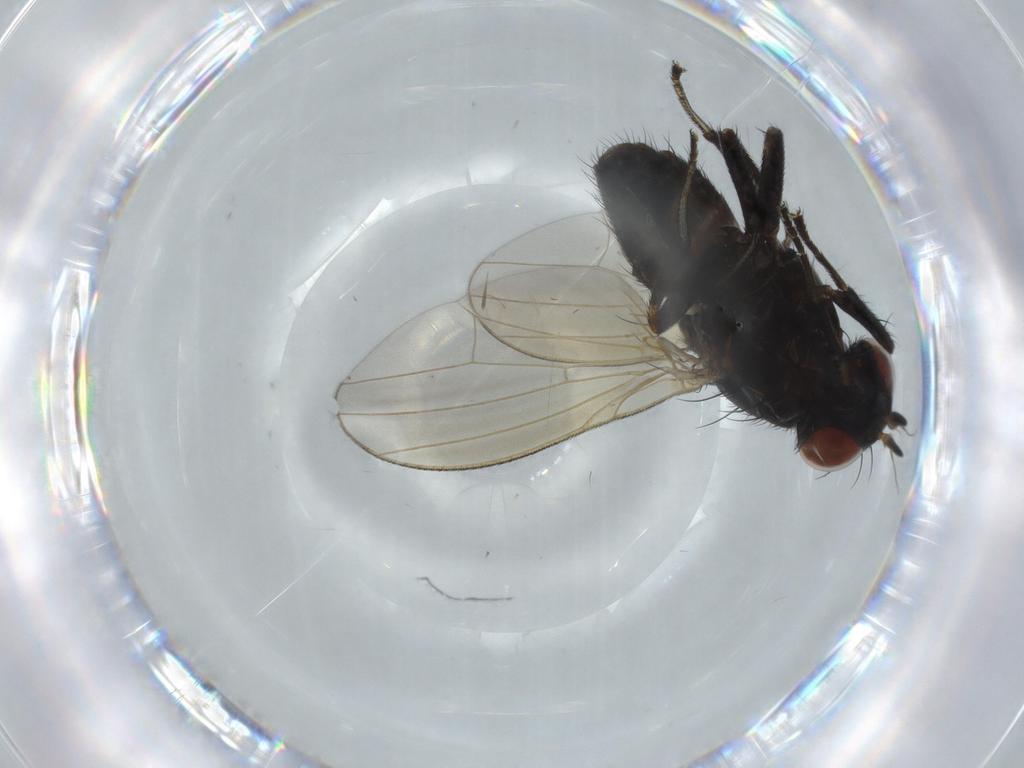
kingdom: Animalia
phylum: Arthropoda
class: Insecta
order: Diptera
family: Lauxaniidae
